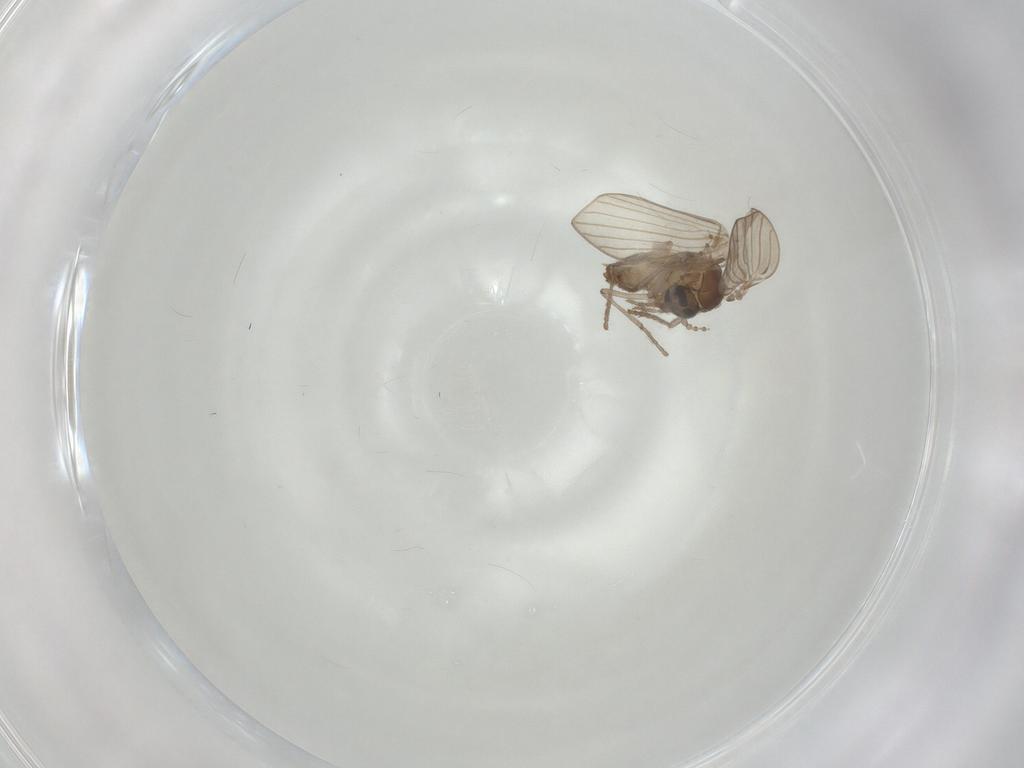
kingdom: Animalia
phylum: Arthropoda
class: Insecta
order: Diptera
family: Psychodidae
